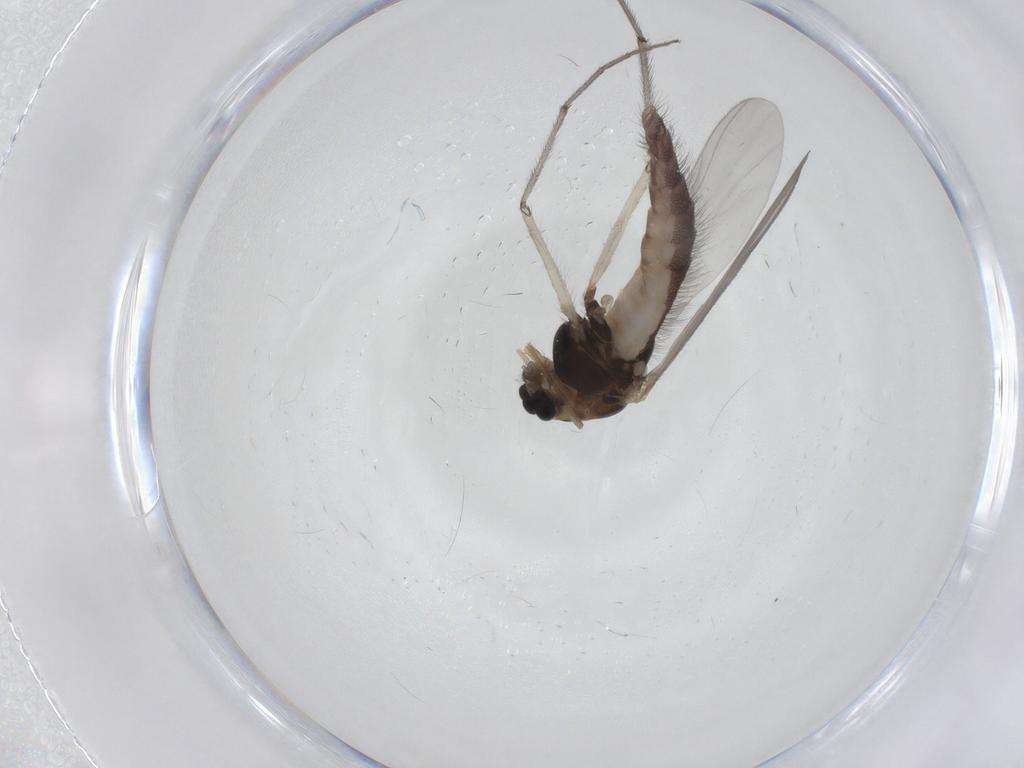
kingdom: Animalia
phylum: Arthropoda
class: Insecta
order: Diptera
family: Chironomidae
